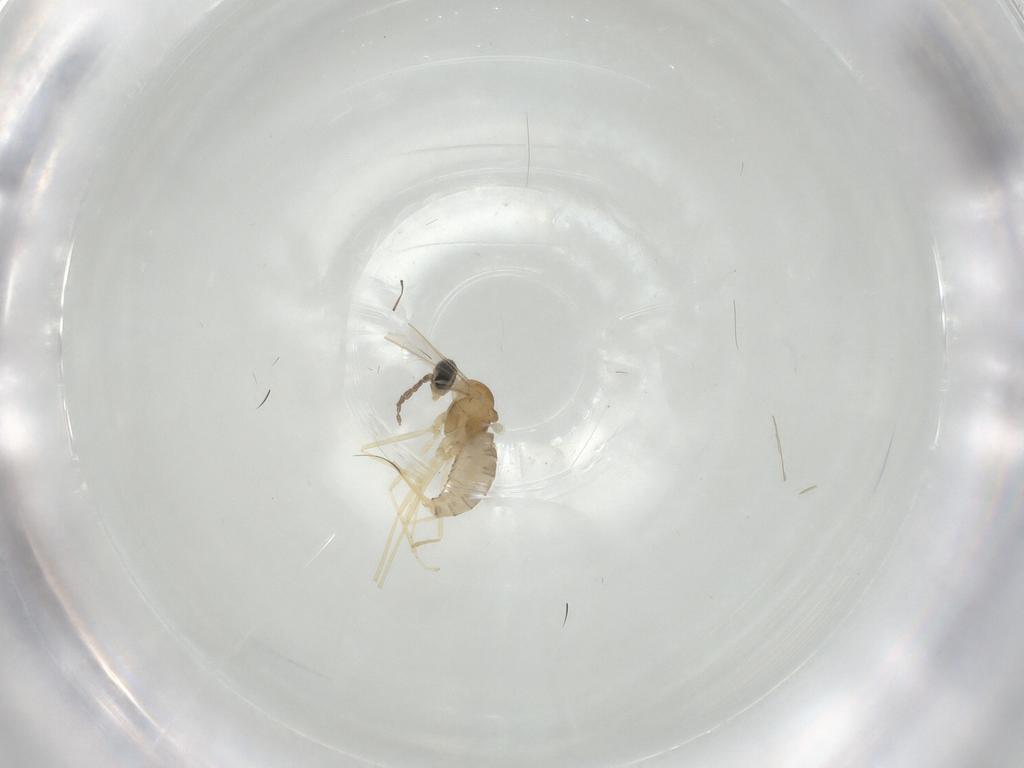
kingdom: Animalia
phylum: Arthropoda
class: Insecta
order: Diptera
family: Cecidomyiidae
